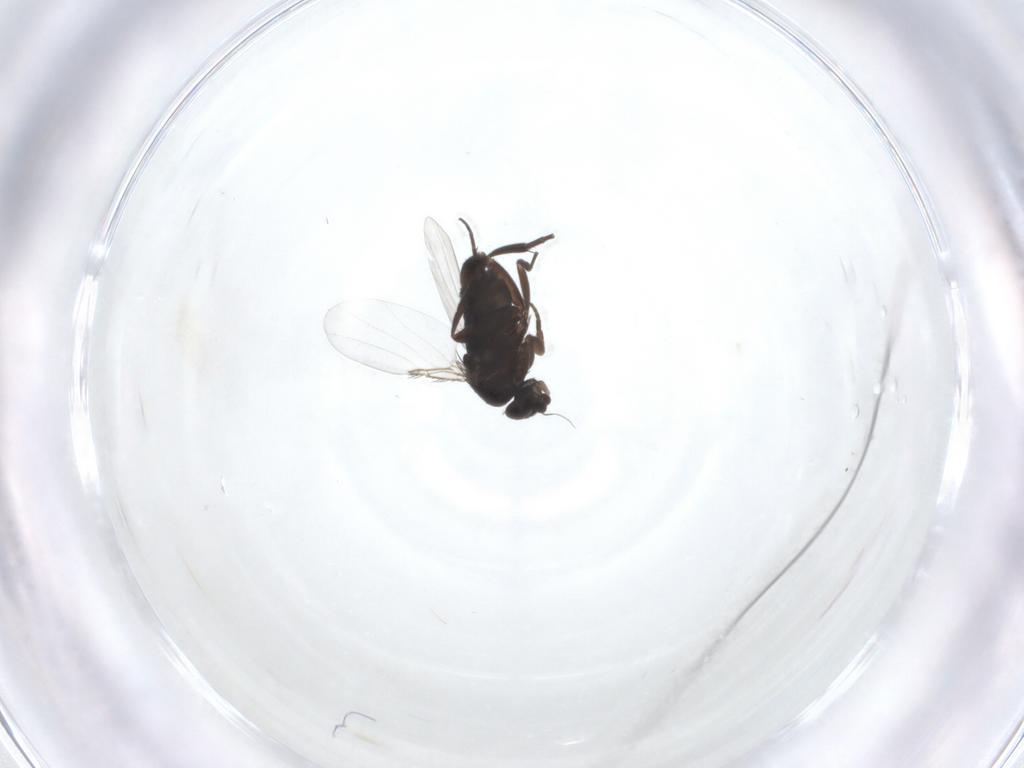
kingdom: Animalia
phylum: Arthropoda
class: Insecta
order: Diptera
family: Phoridae
